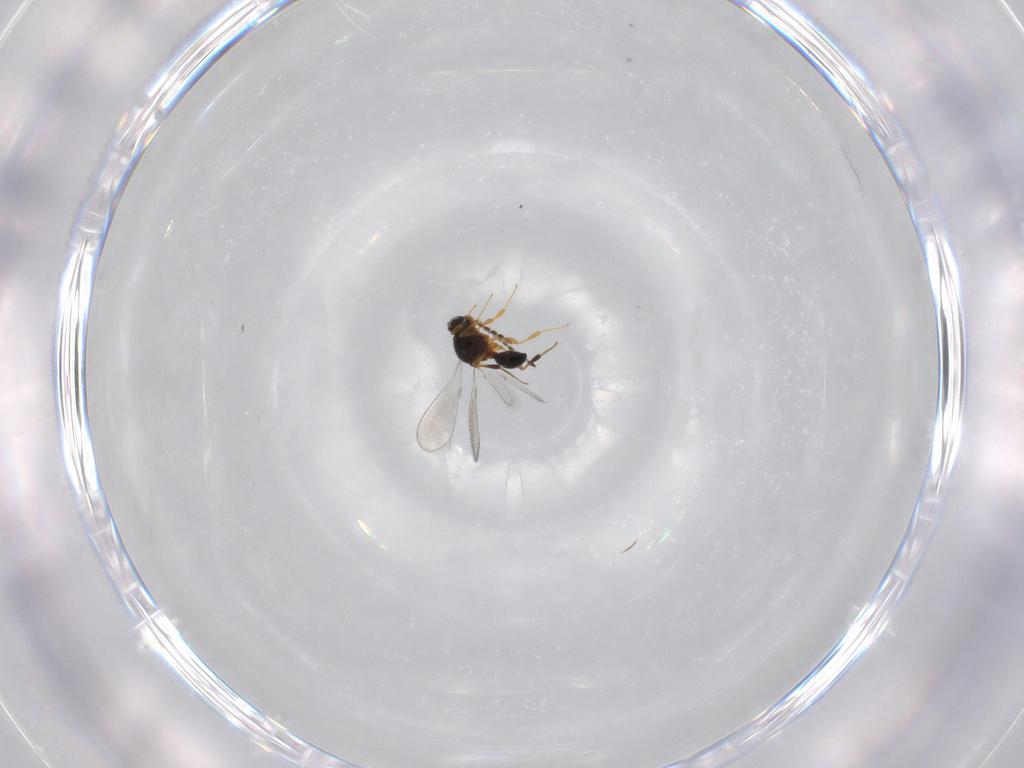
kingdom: Animalia
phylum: Arthropoda
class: Insecta
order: Hymenoptera
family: Platygastridae
